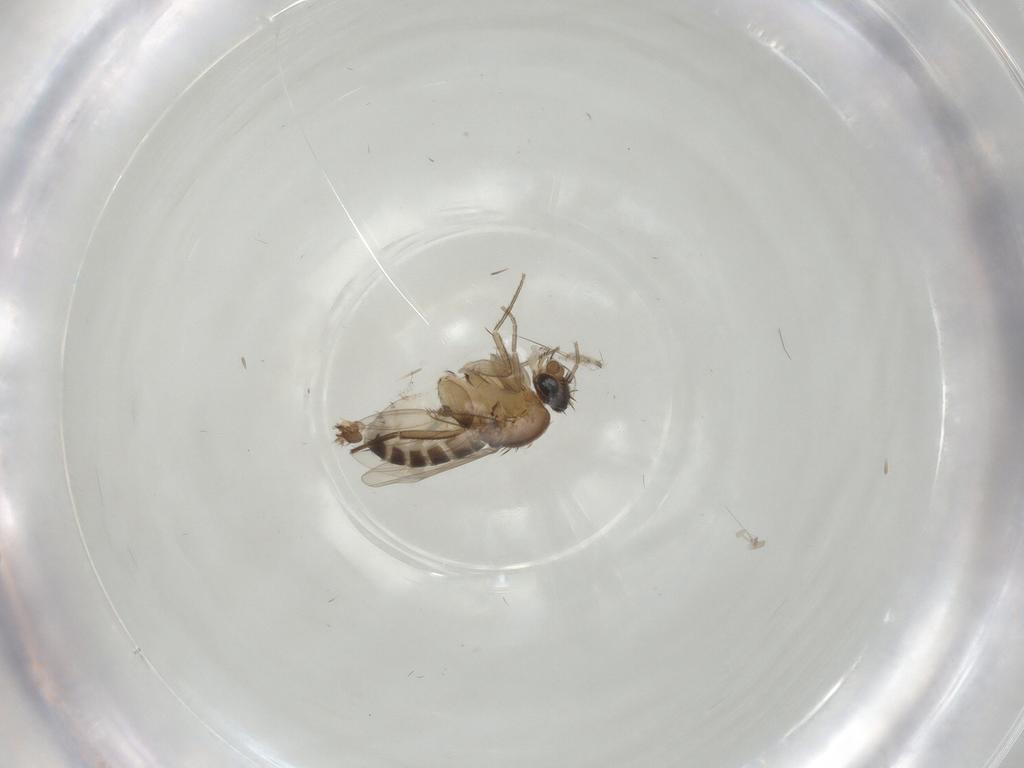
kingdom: Animalia
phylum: Arthropoda
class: Insecta
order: Diptera
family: Phoridae
